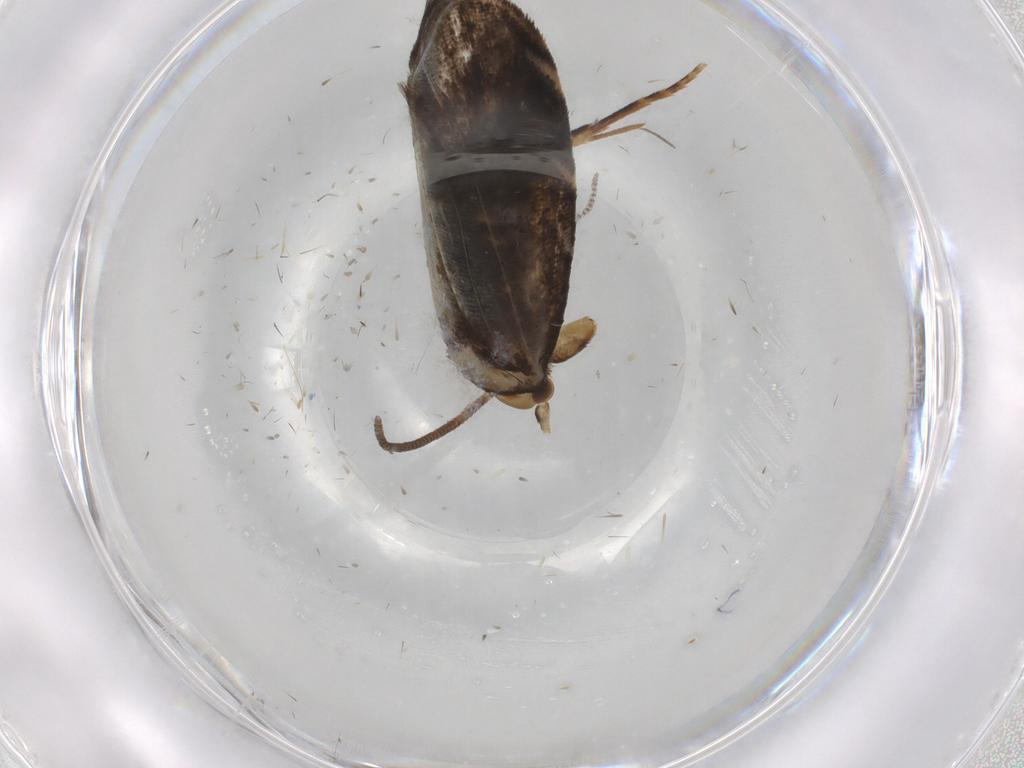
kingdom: Animalia
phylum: Arthropoda
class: Insecta
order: Lepidoptera
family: Dryadaulidae
